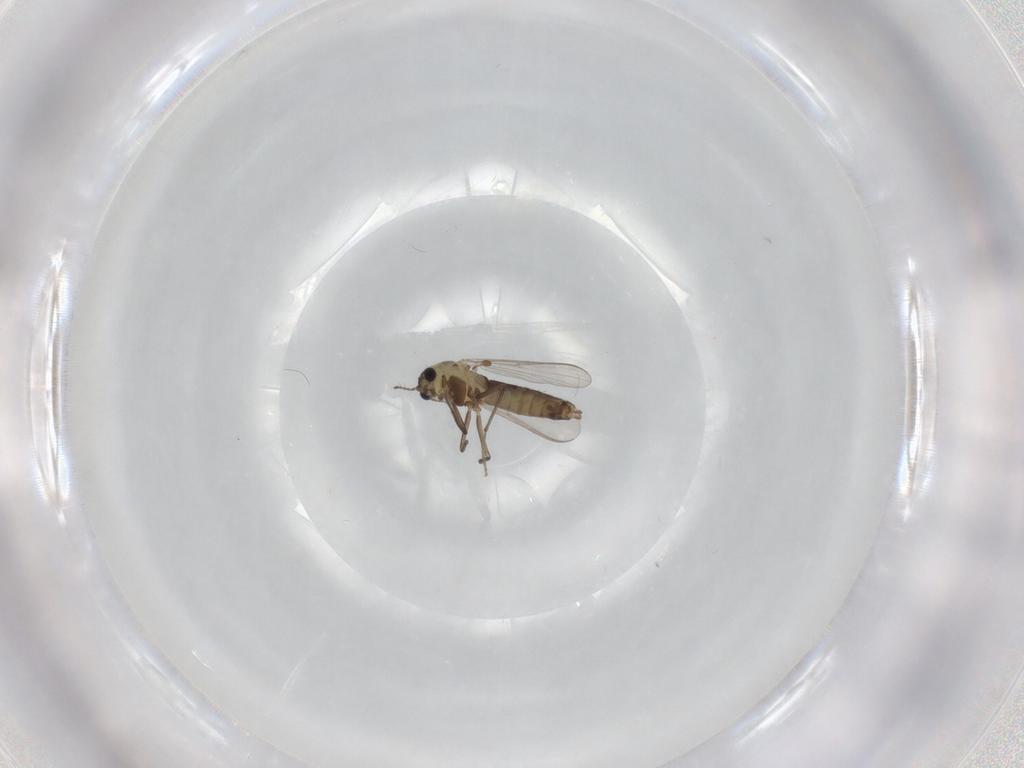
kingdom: Animalia
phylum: Arthropoda
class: Insecta
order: Diptera
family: Chironomidae
